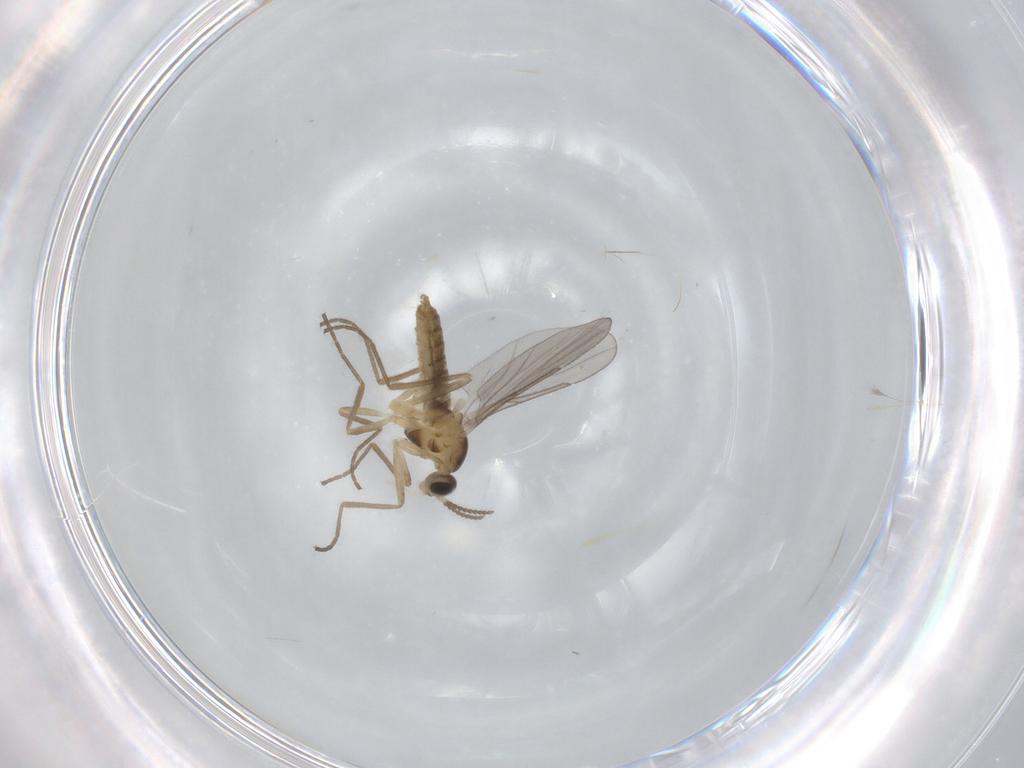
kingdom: Animalia
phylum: Arthropoda
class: Insecta
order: Diptera
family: Cecidomyiidae
